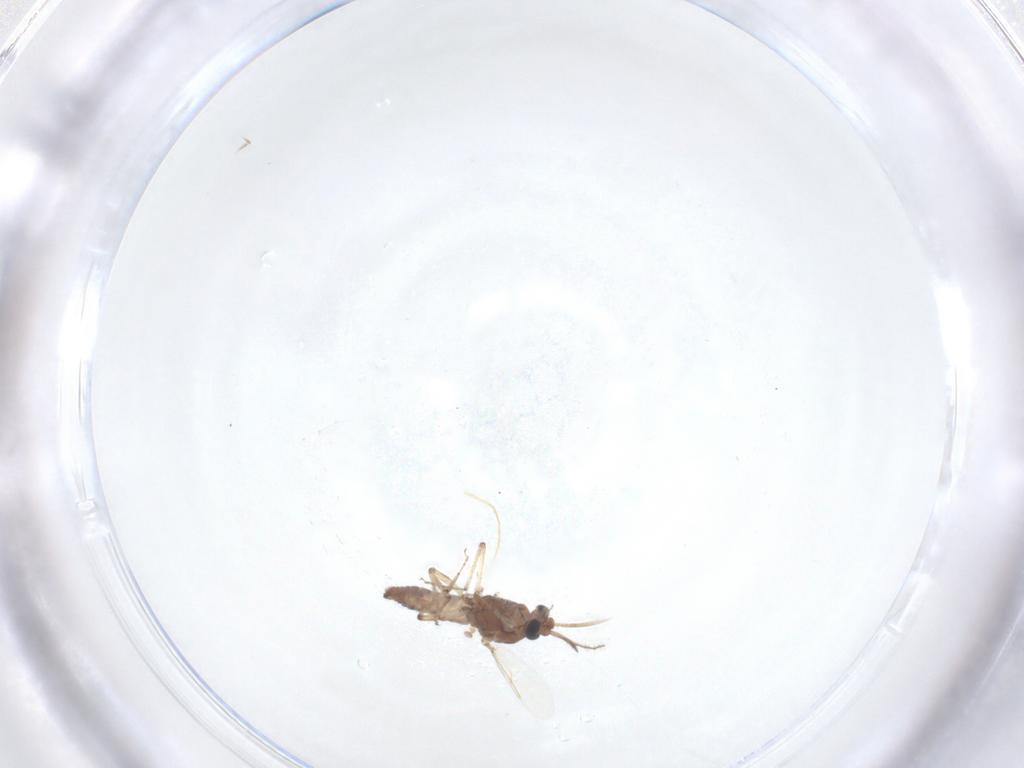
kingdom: Animalia
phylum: Arthropoda
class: Insecta
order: Diptera
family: Ceratopogonidae
